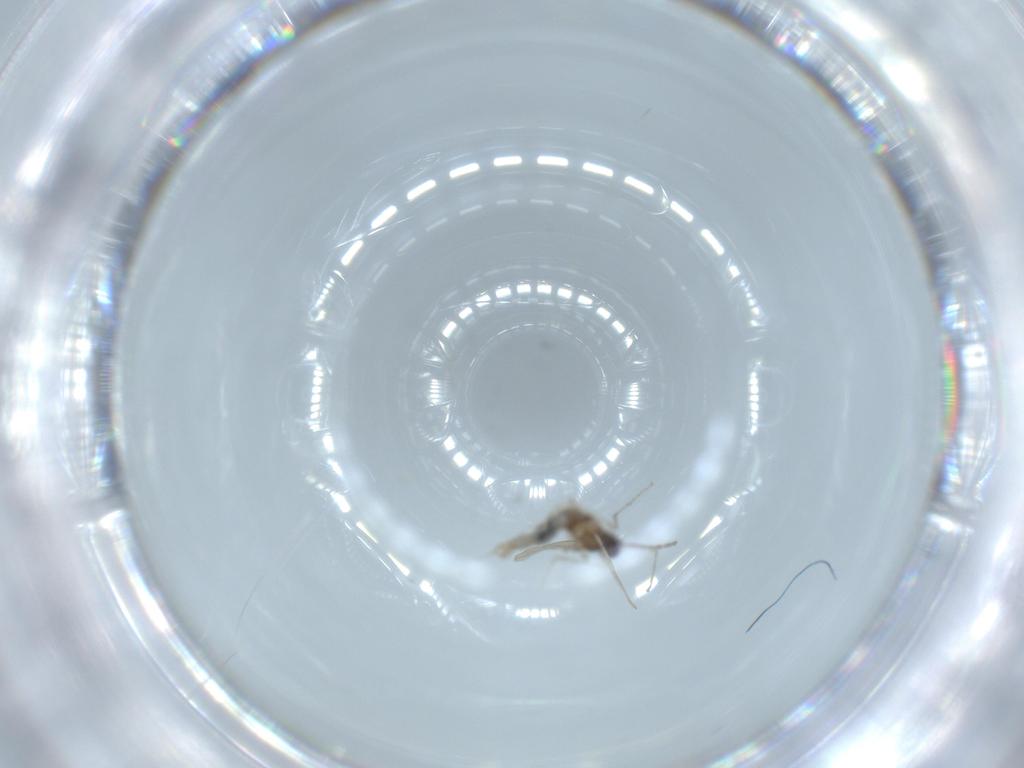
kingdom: Animalia
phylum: Arthropoda
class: Insecta
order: Diptera
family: Cecidomyiidae
